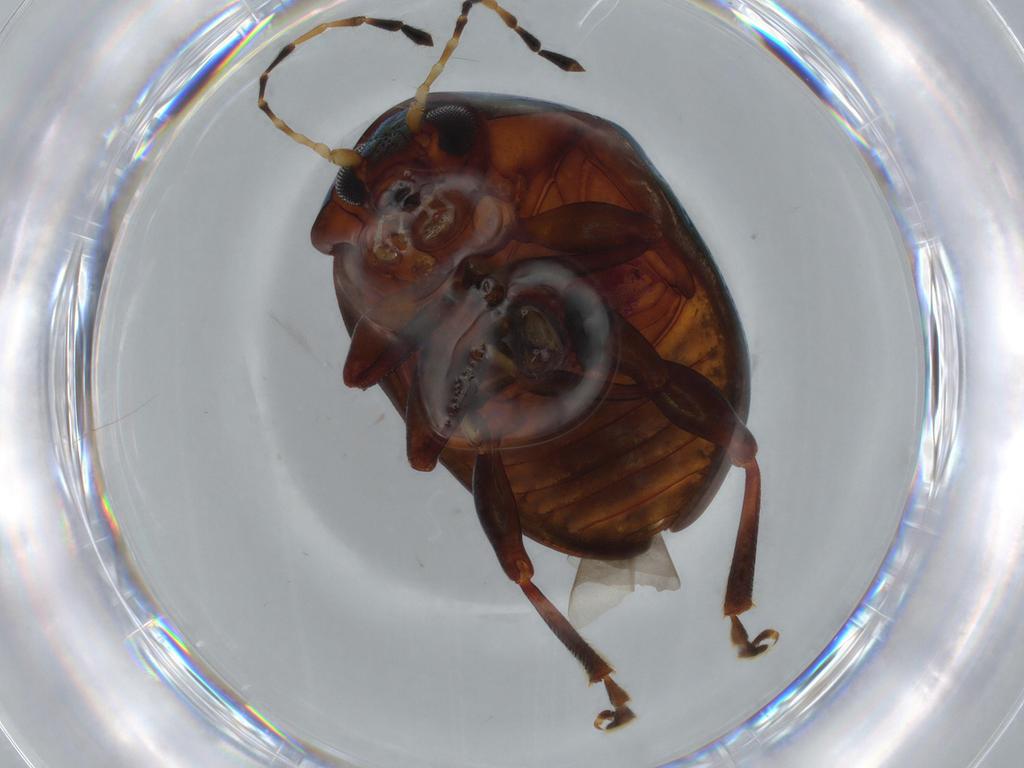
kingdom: Animalia
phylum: Arthropoda
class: Insecta
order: Coleoptera
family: Chrysomelidae
